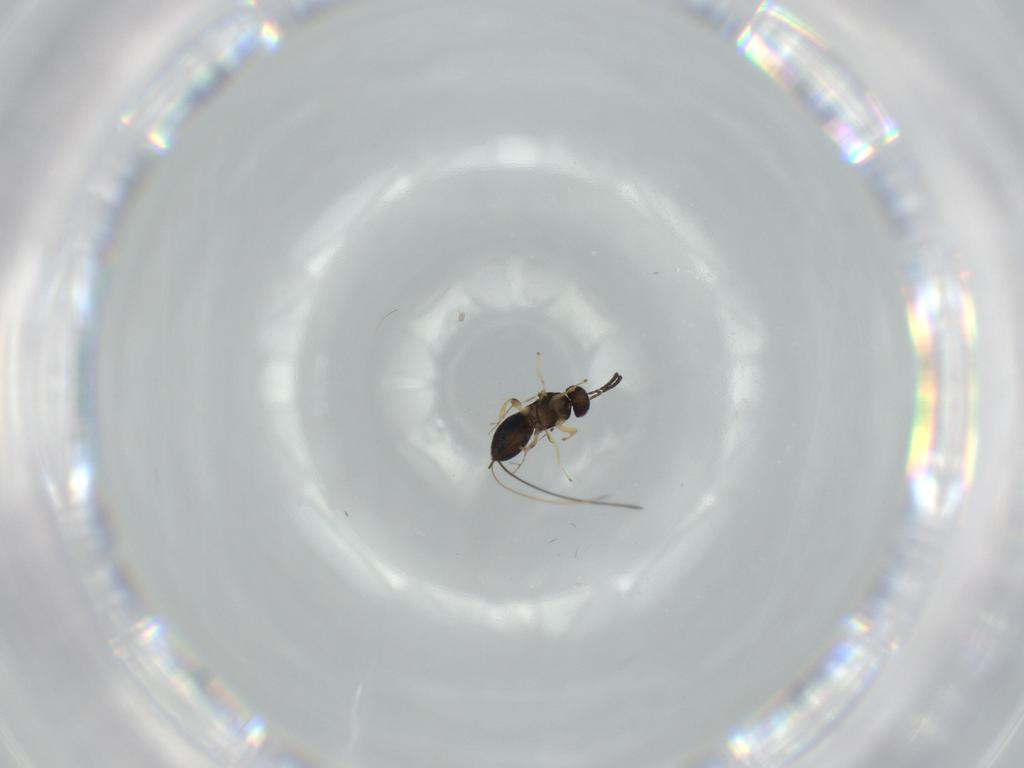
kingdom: Animalia
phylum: Arthropoda
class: Insecta
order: Hymenoptera
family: Agaonidae
